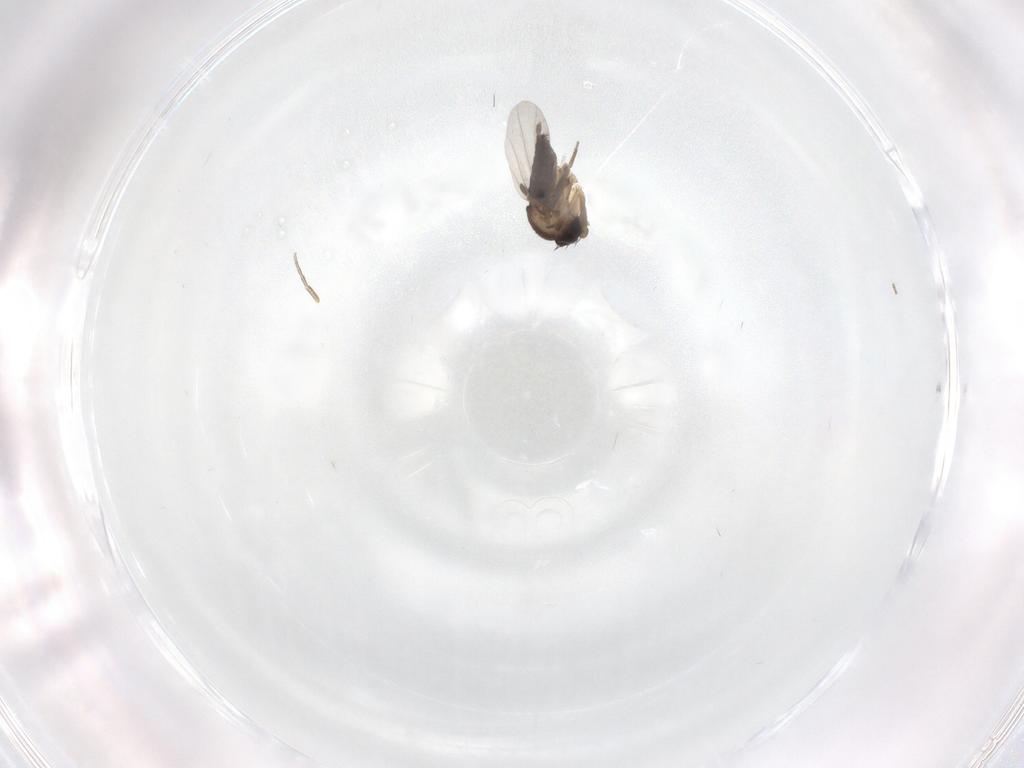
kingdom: Animalia
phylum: Arthropoda
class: Insecta
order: Diptera
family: Phoridae
